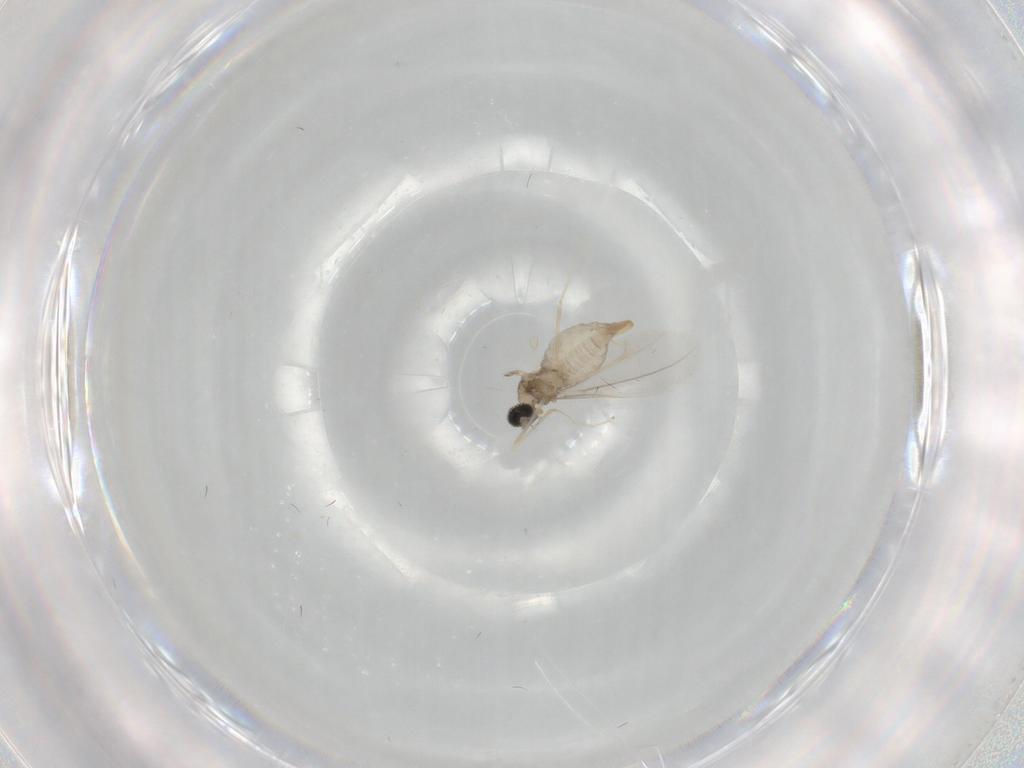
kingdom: Animalia
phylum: Arthropoda
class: Insecta
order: Diptera
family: Cecidomyiidae
